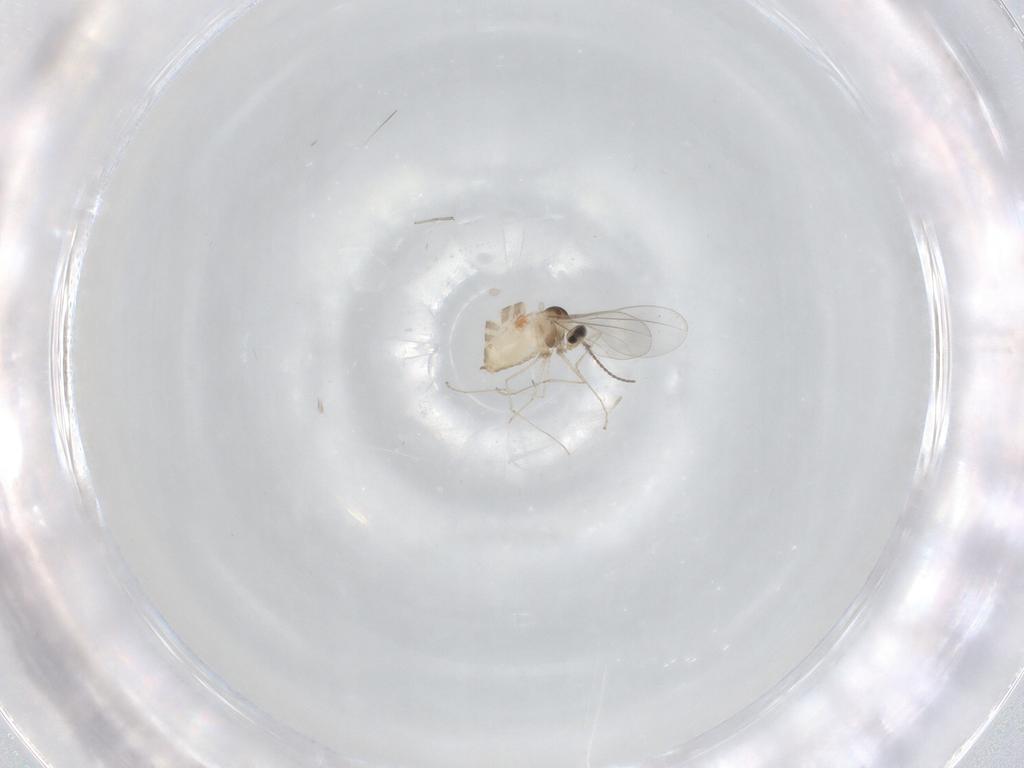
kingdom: Animalia
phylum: Arthropoda
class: Insecta
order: Diptera
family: Cecidomyiidae
